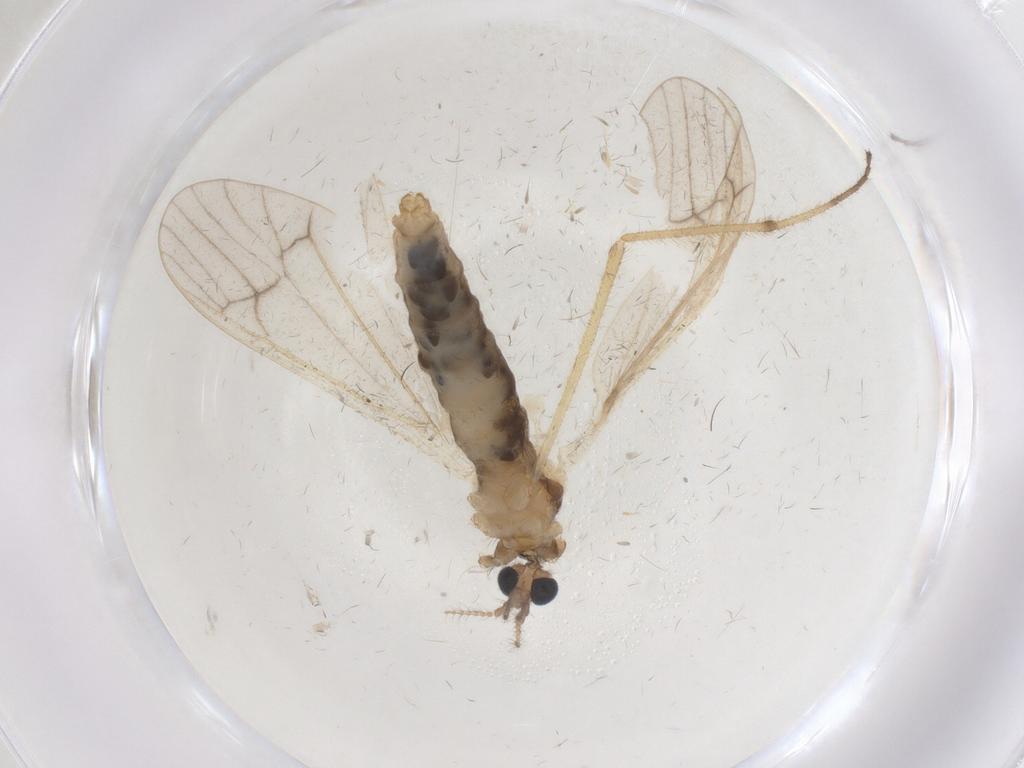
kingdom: Animalia
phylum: Arthropoda
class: Insecta
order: Diptera
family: Limoniidae
